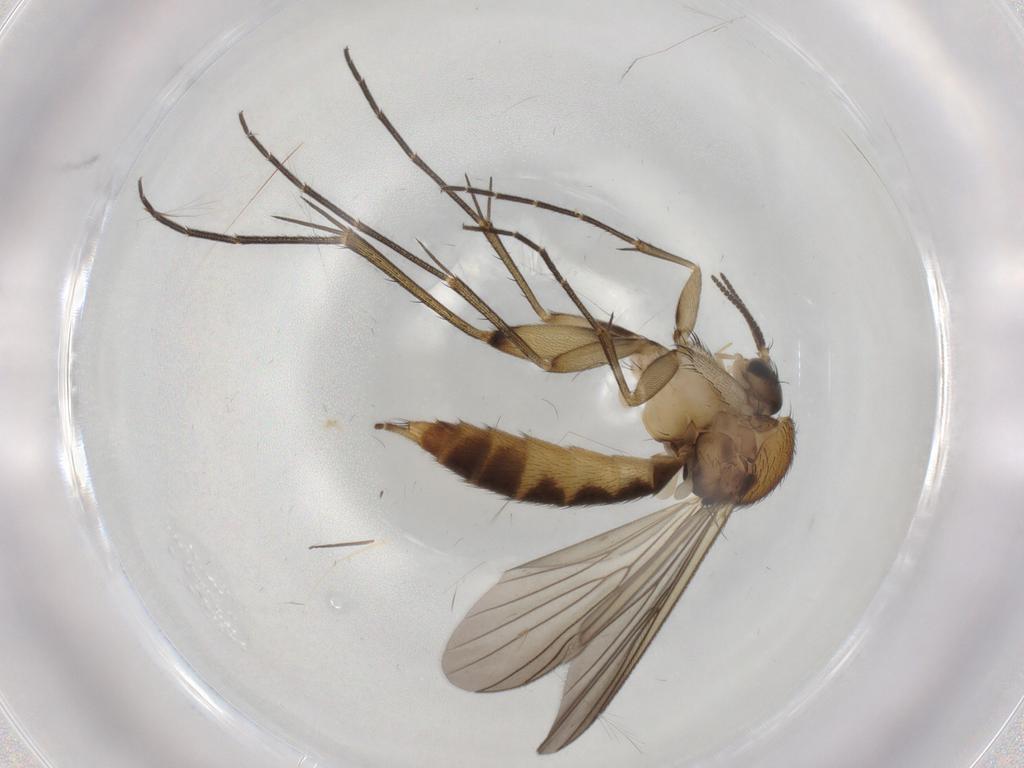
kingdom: Animalia
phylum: Arthropoda
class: Insecta
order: Diptera
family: Mycetophilidae
